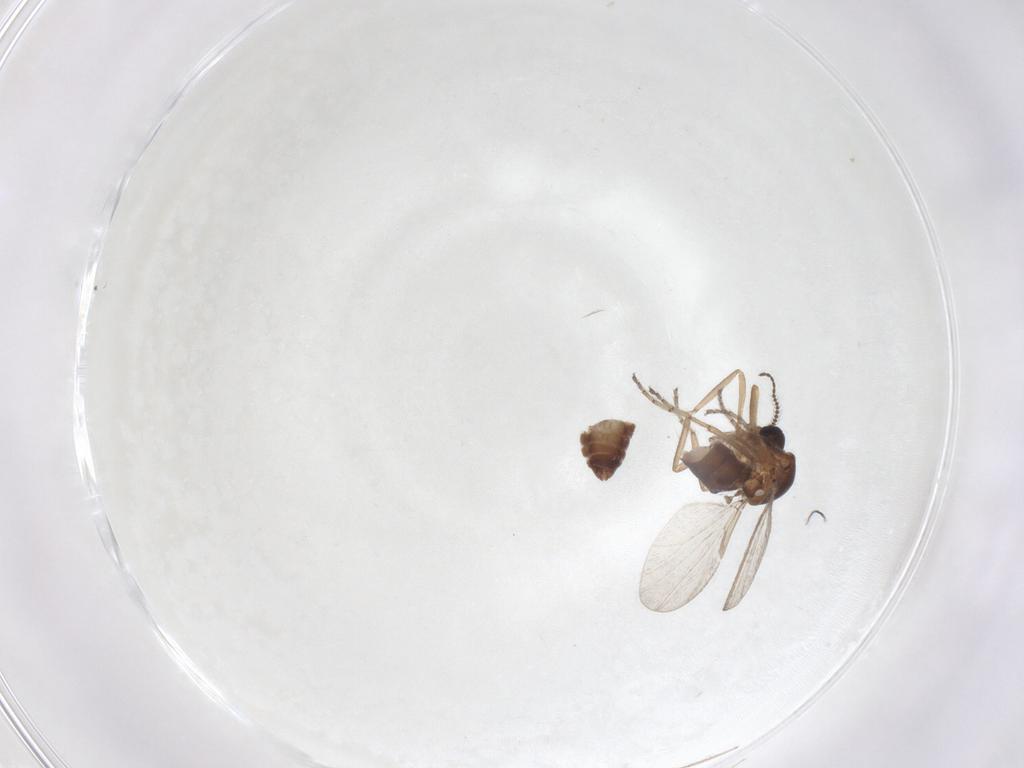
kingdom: Animalia
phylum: Arthropoda
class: Insecta
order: Diptera
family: Ceratopogonidae
